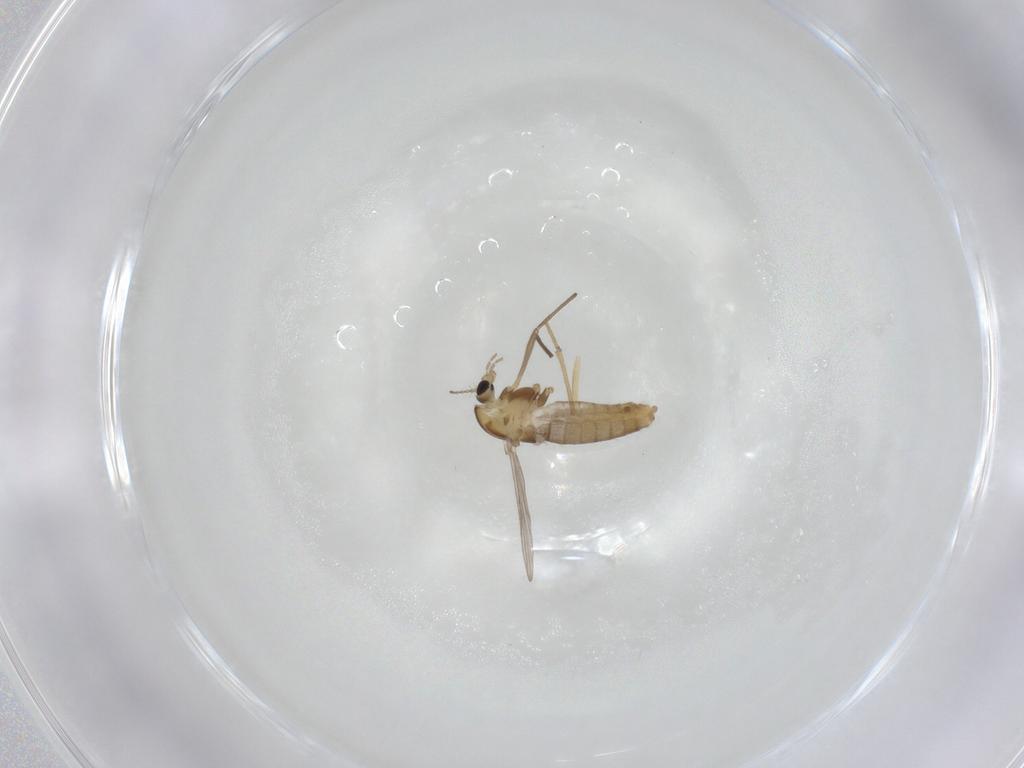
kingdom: Animalia
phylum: Arthropoda
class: Insecta
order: Diptera
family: Chironomidae
